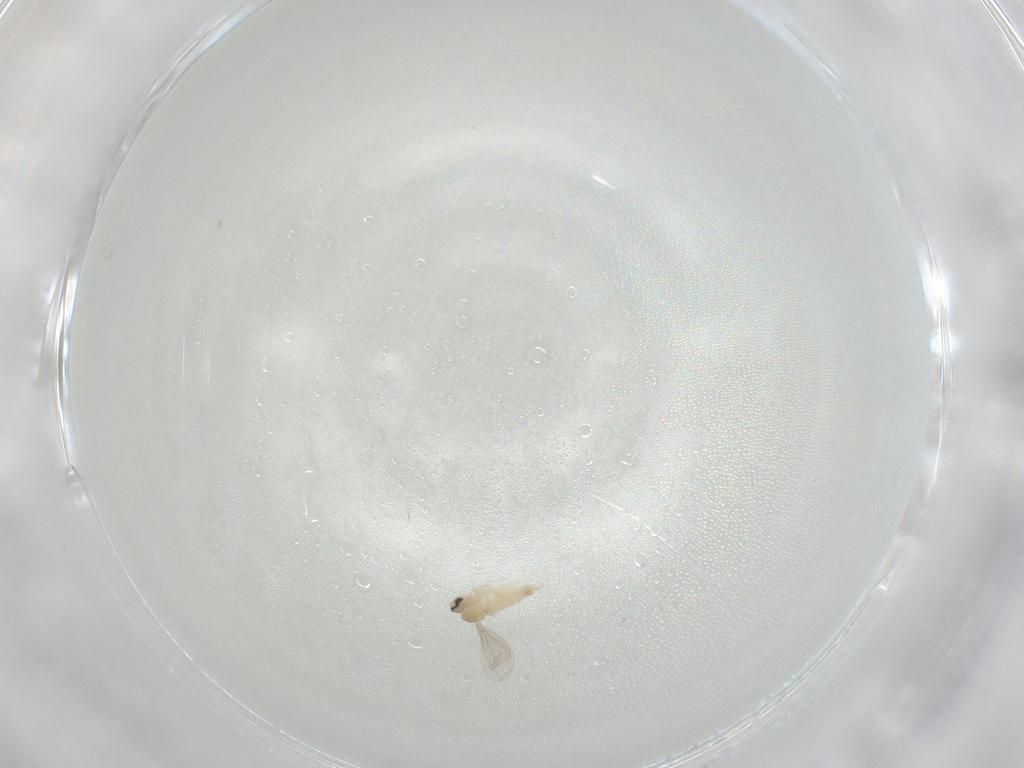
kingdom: Animalia
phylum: Arthropoda
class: Insecta
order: Diptera
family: Cecidomyiidae
